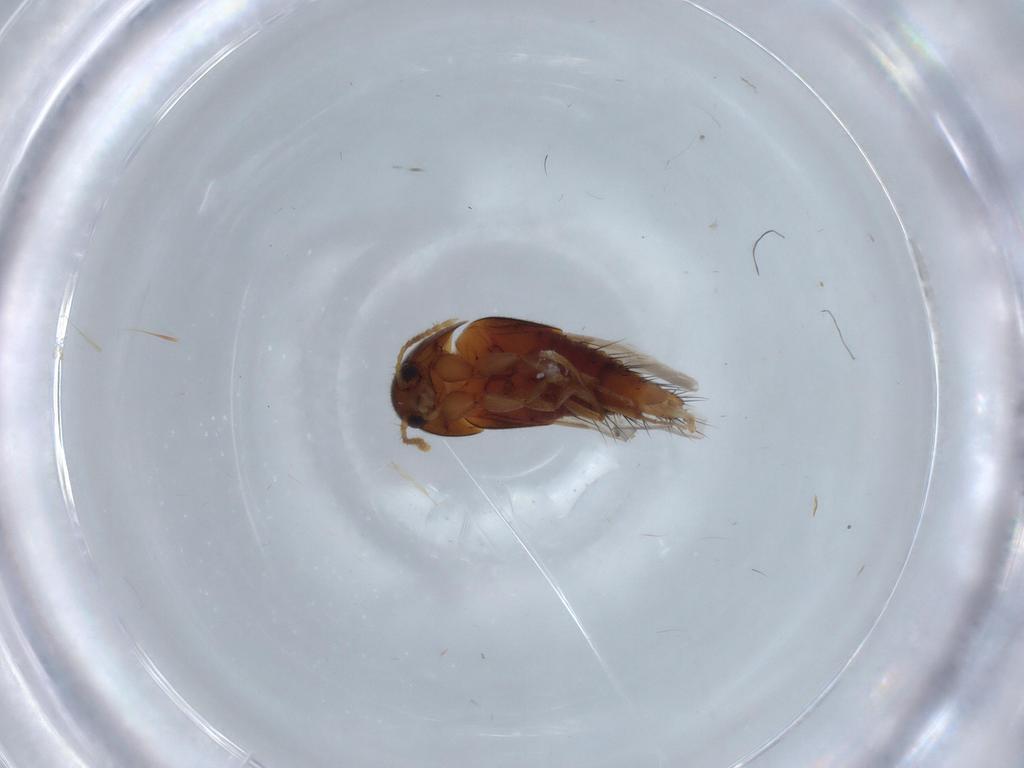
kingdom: Animalia
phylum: Arthropoda
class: Insecta
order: Coleoptera
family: Staphylinidae
